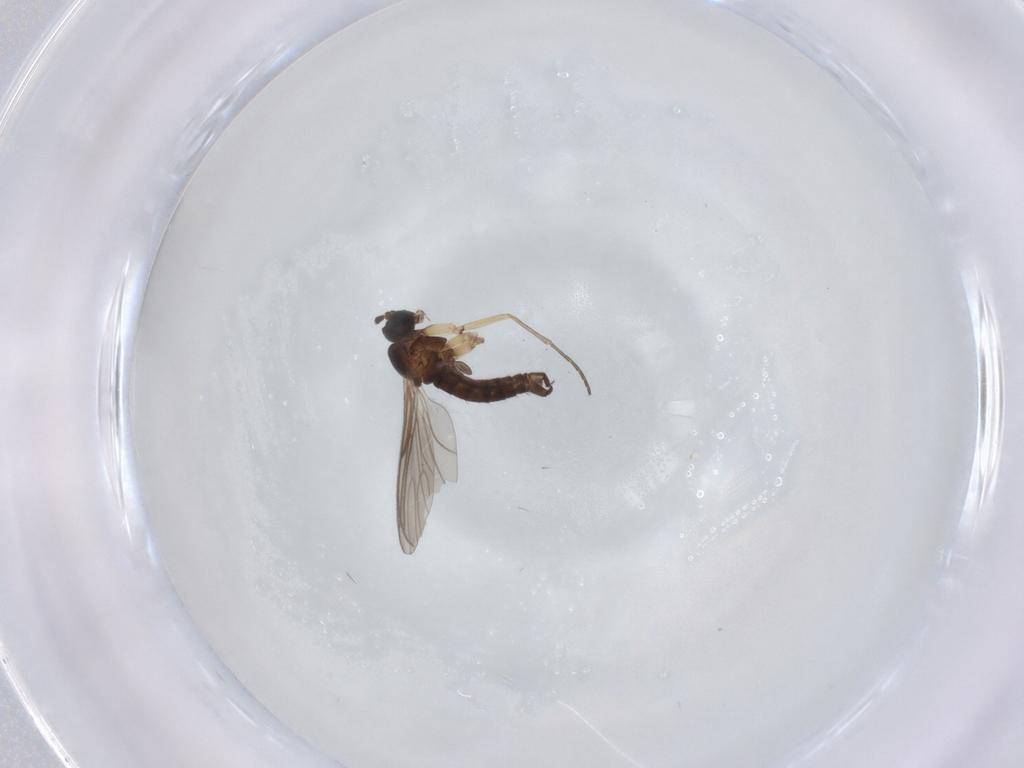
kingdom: Animalia
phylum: Arthropoda
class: Insecta
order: Diptera
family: Sciaridae
